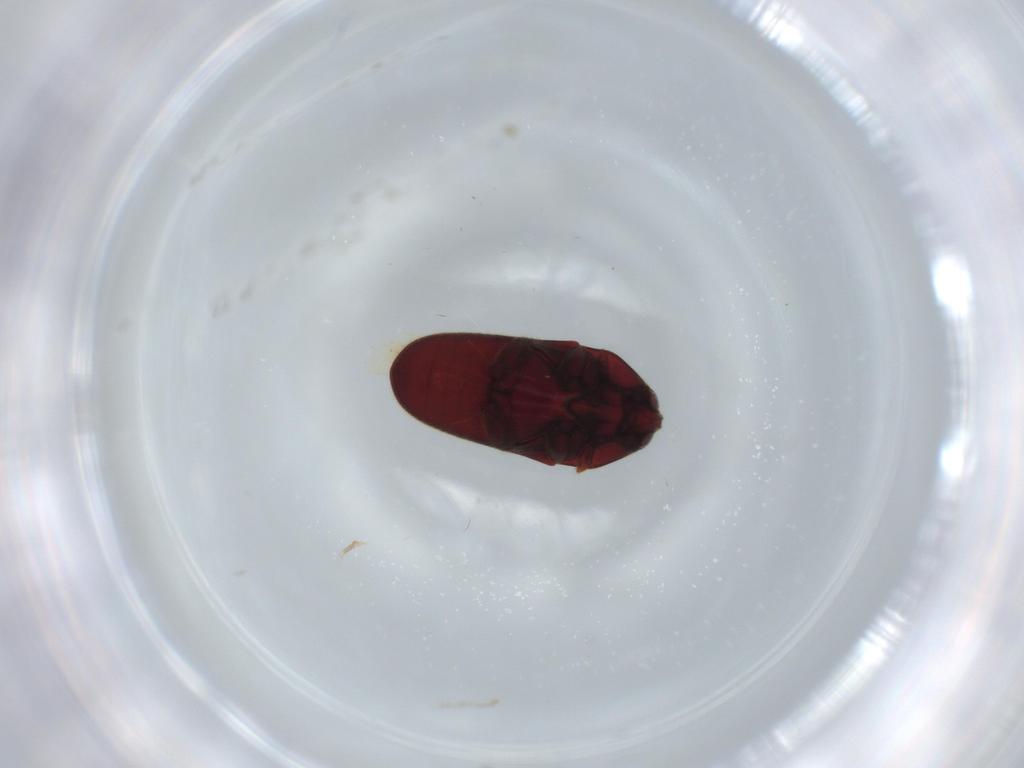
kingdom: Animalia
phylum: Arthropoda
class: Insecta
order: Coleoptera
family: Throscidae
